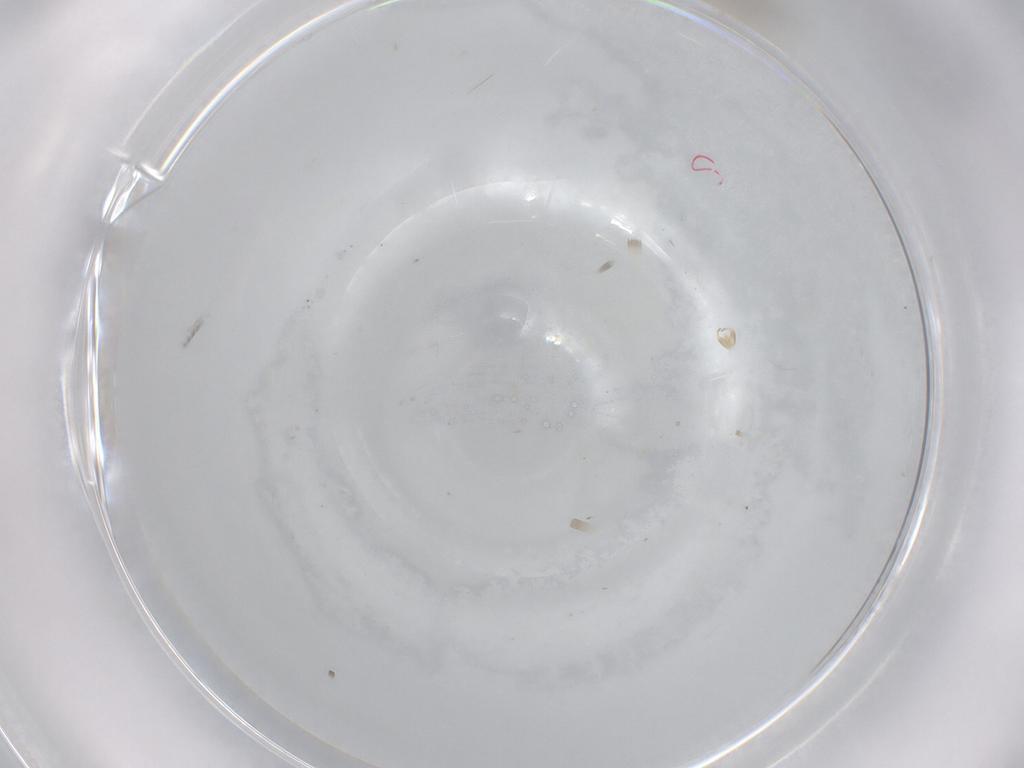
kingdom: Animalia
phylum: Arthropoda
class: Insecta
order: Diptera
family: Cecidomyiidae
